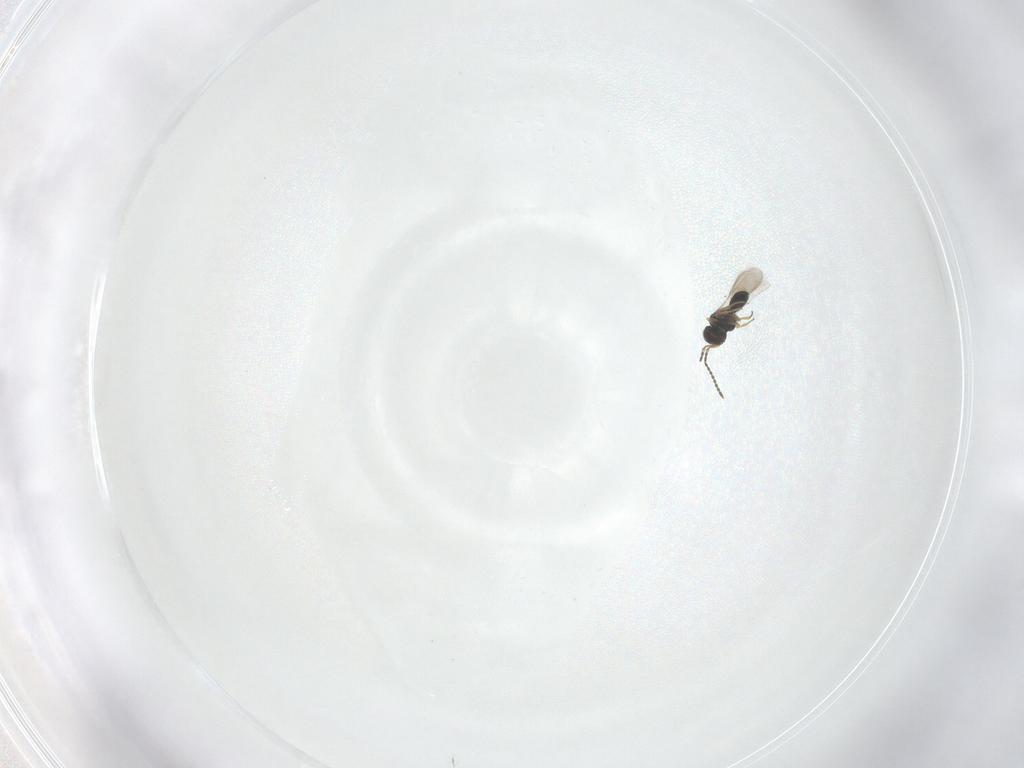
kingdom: Animalia
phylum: Arthropoda
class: Insecta
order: Hymenoptera
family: Scelionidae
